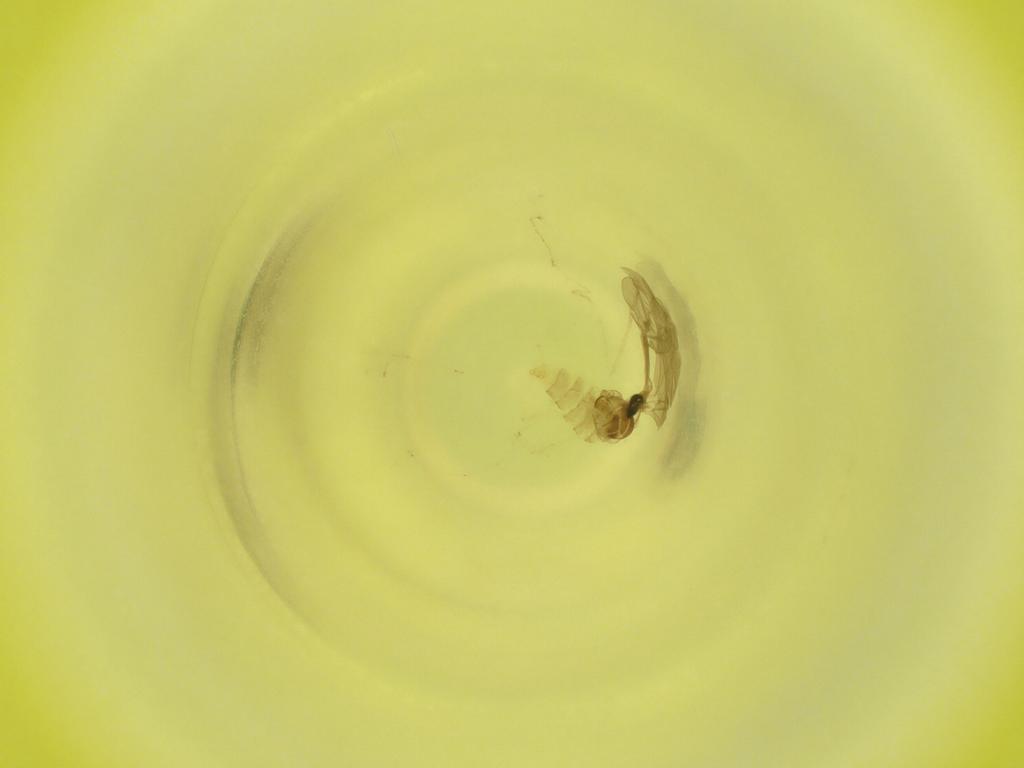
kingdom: Animalia
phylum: Arthropoda
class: Insecta
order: Diptera
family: Cecidomyiidae
